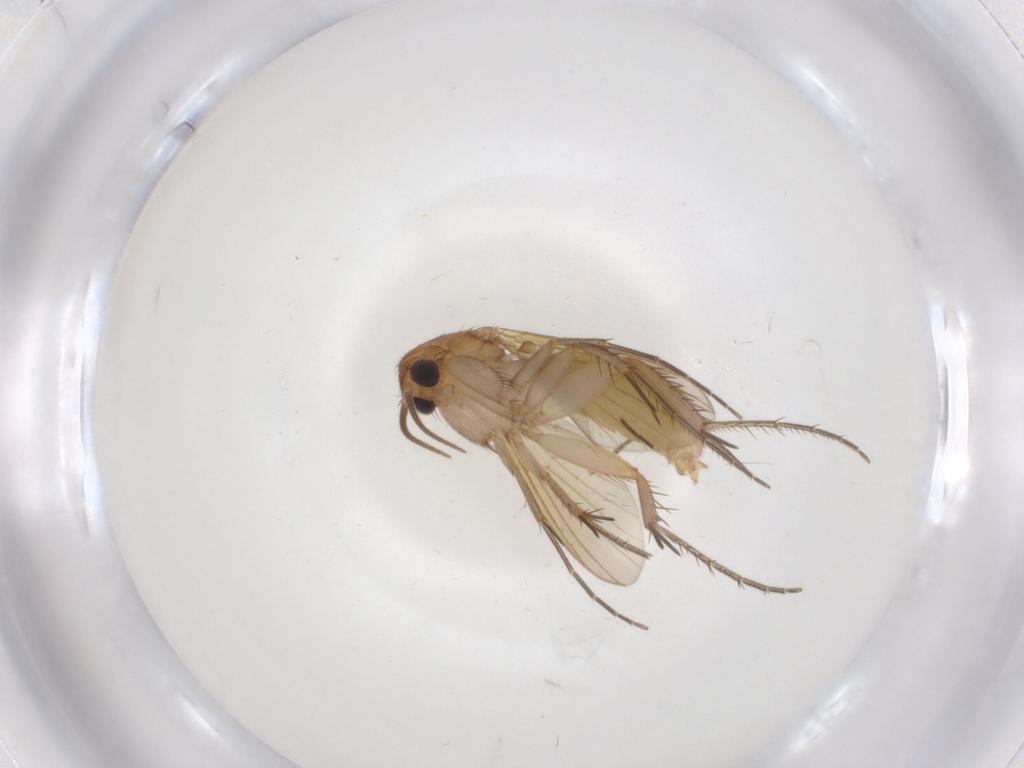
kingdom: Animalia
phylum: Arthropoda
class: Insecta
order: Diptera
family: Mycetophilidae
